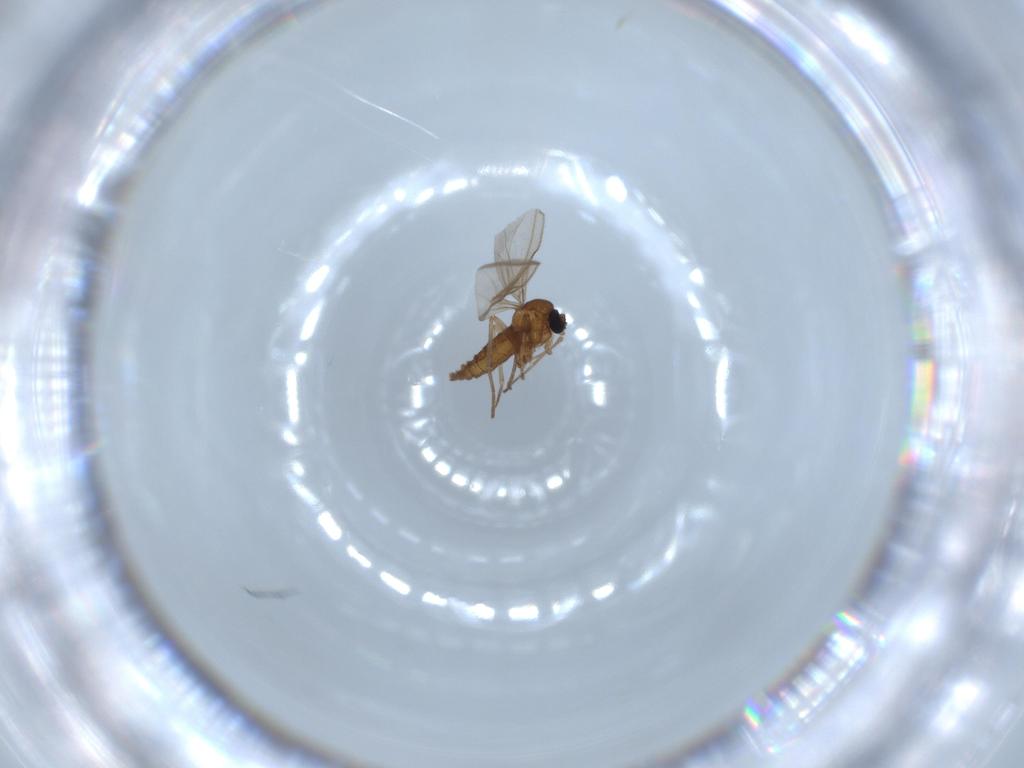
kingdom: Animalia
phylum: Arthropoda
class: Insecta
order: Diptera
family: Sciaridae
